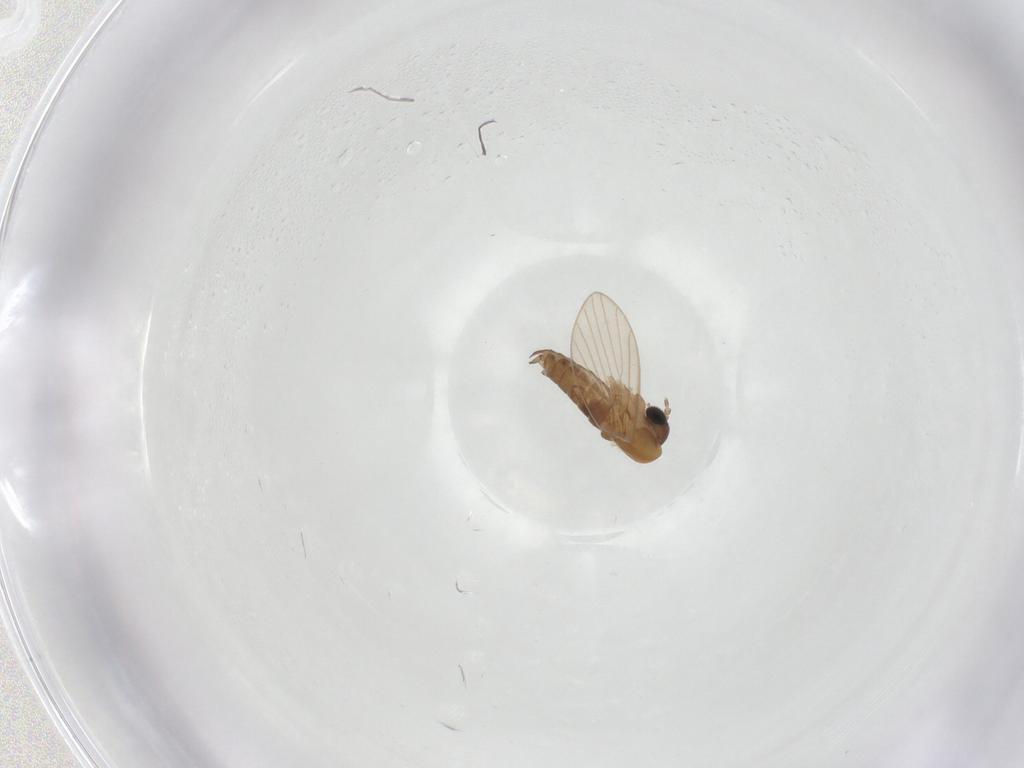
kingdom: Animalia
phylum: Arthropoda
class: Insecta
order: Diptera
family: Cecidomyiidae
